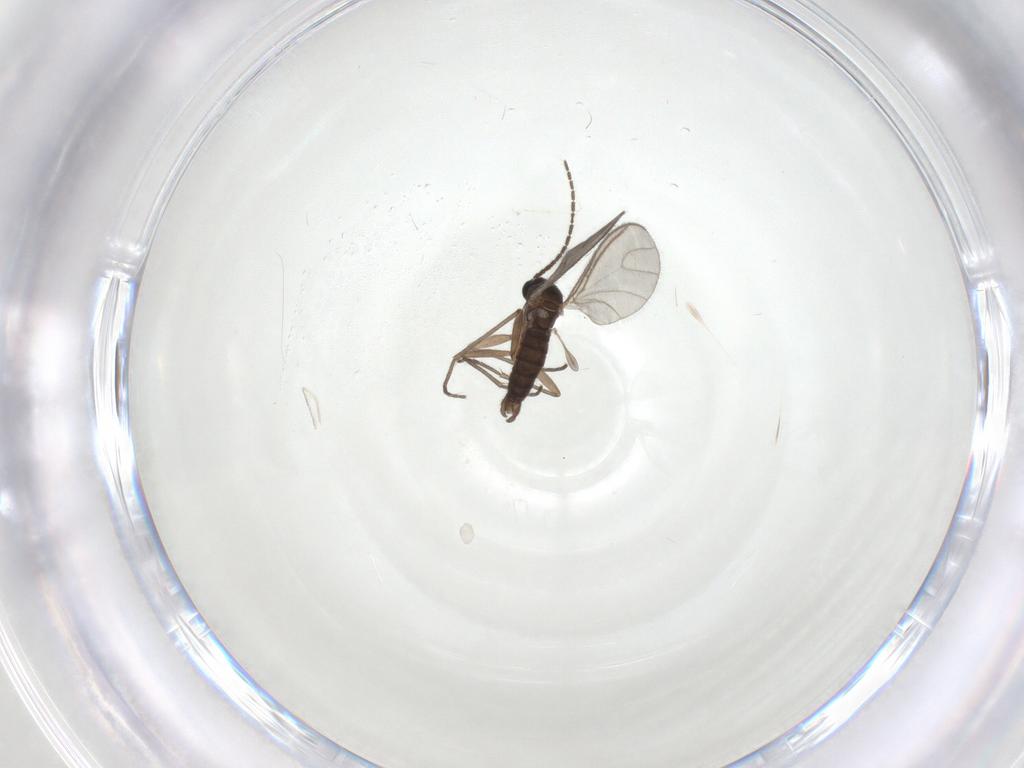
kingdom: Animalia
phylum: Arthropoda
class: Insecta
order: Diptera
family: Sciaridae
